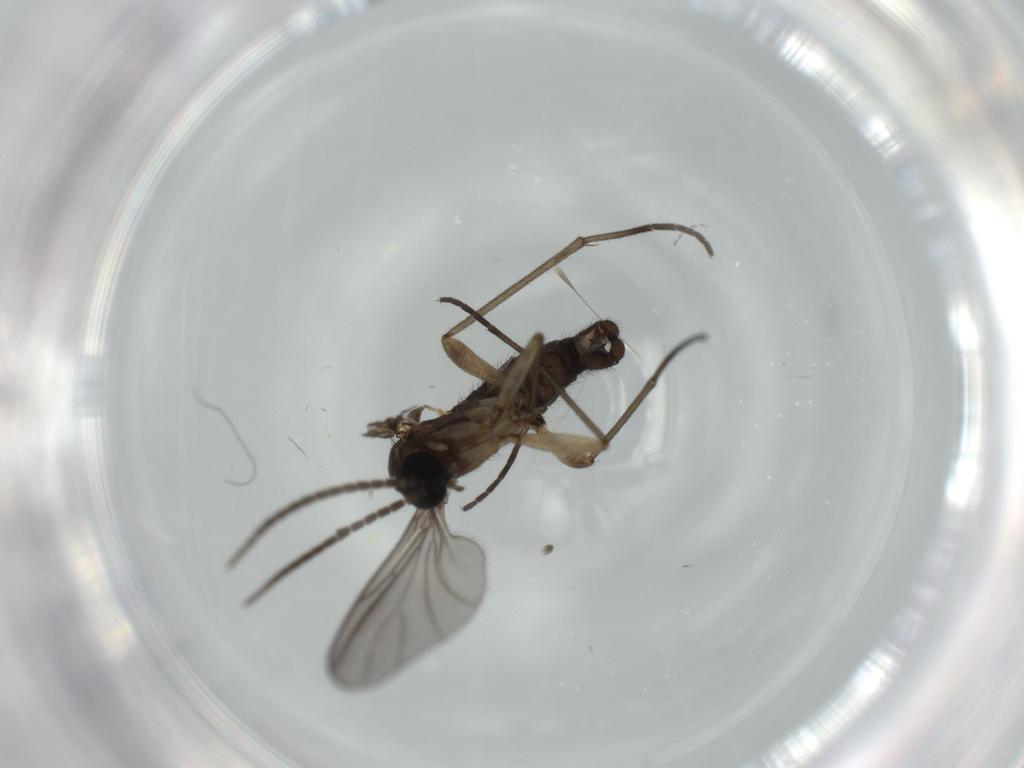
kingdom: Animalia
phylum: Arthropoda
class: Insecta
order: Diptera
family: Sciaridae
